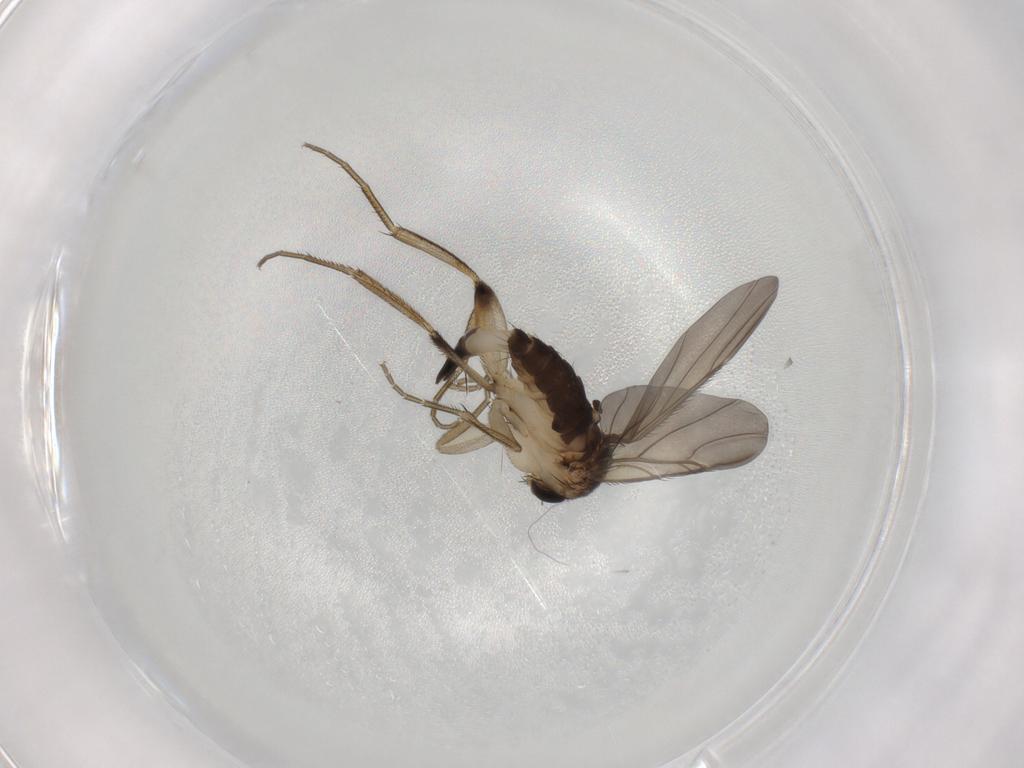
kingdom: Animalia
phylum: Arthropoda
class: Insecta
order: Diptera
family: Phoridae
